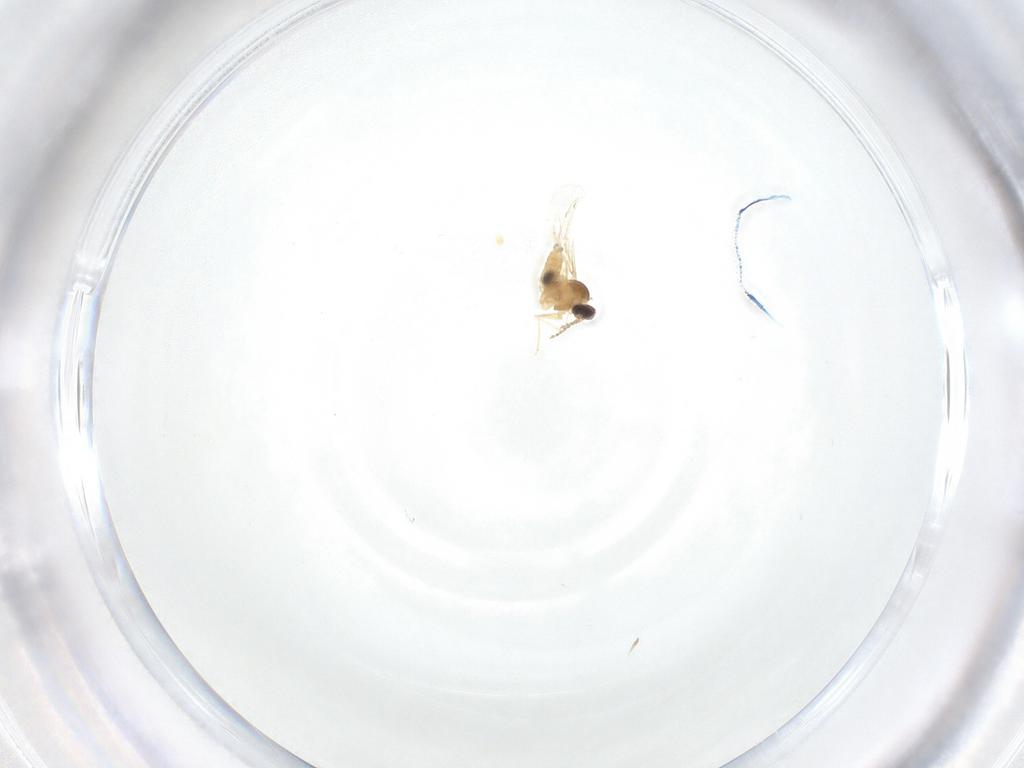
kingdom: Animalia
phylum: Arthropoda
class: Insecta
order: Diptera
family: Cecidomyiidae
